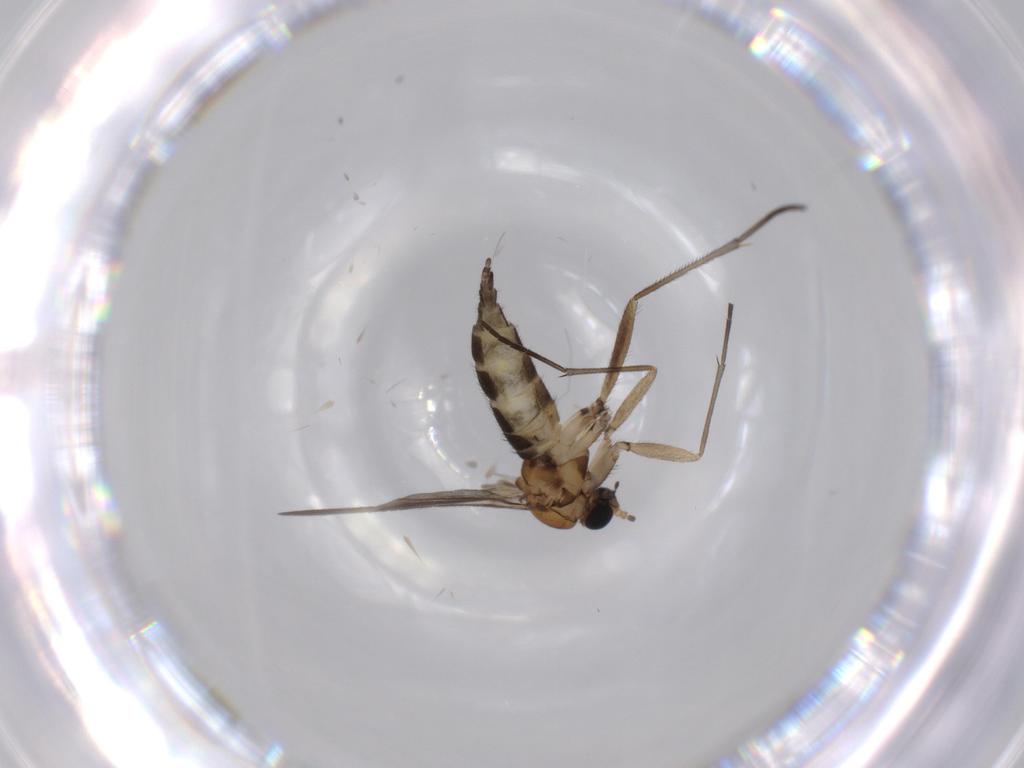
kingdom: Animalia
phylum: Arthropoda
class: Insecta
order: Diptera
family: Sciaridae
